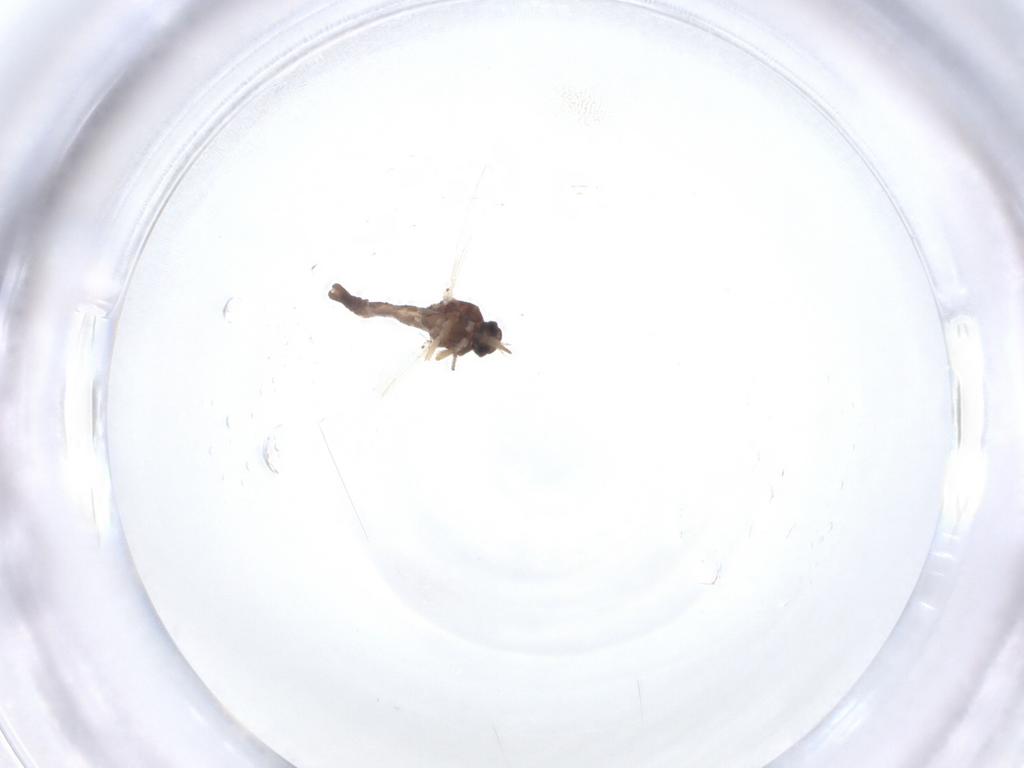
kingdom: Animalia
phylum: Arthropoda
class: Insecta
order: Diptera
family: Ceratopogonidae
